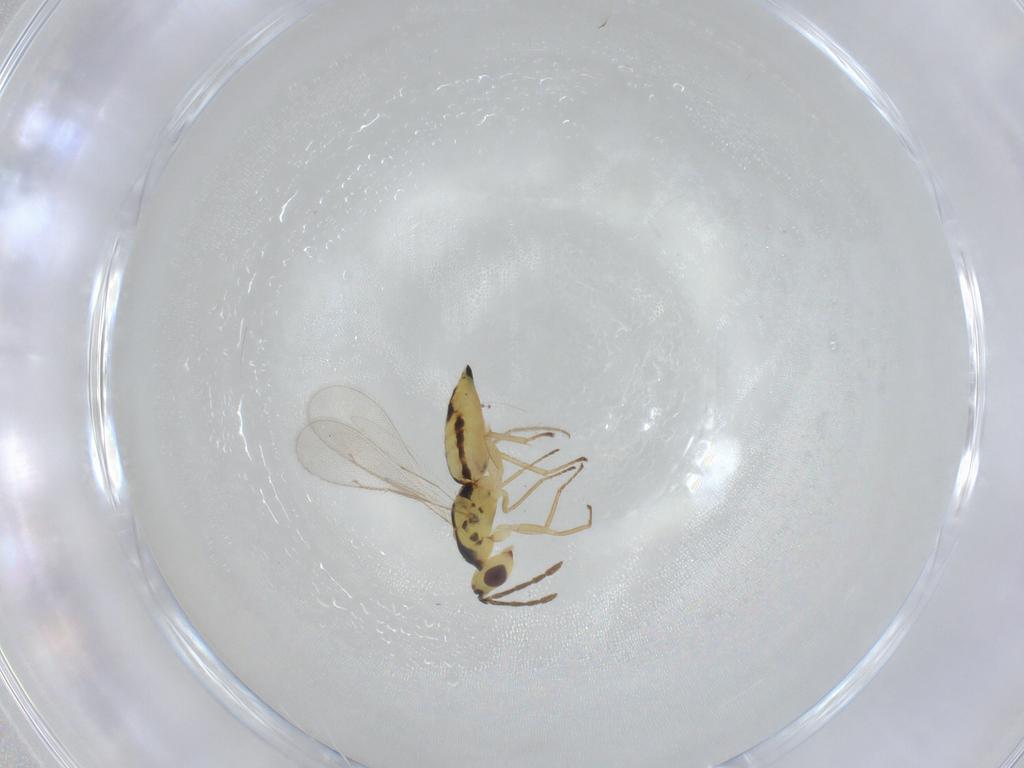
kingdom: Animalia
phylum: Arthropoda
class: Insecta
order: Hymenoptera
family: Eulophidae
